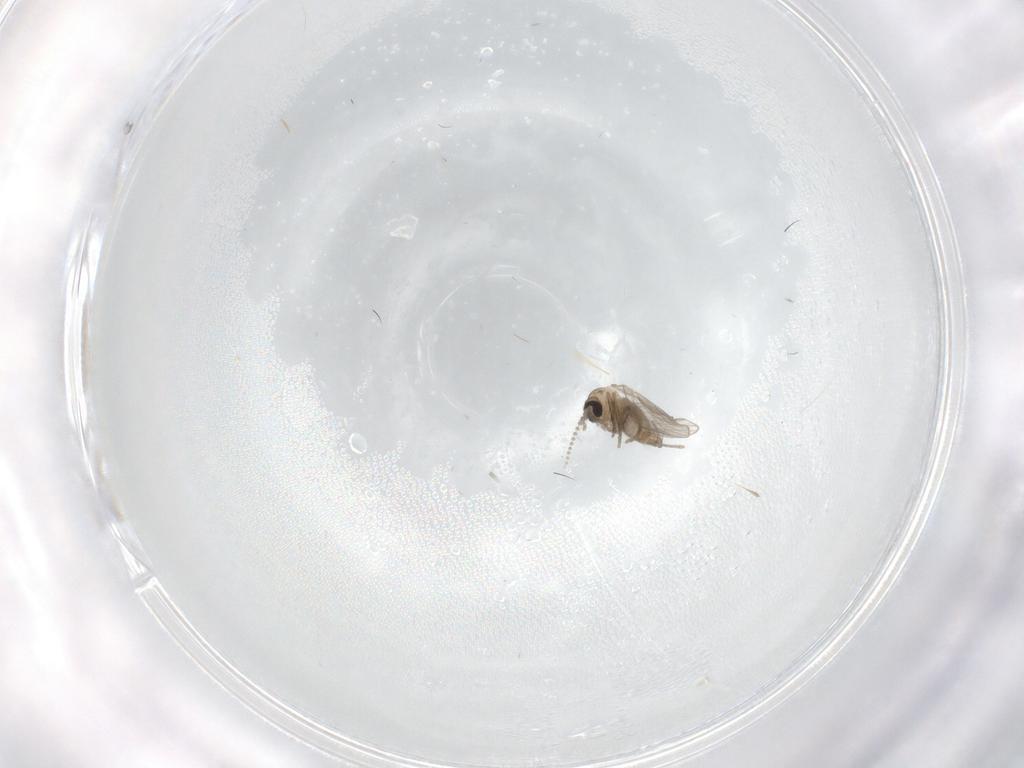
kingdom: Animalia
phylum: Arthropoda
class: Insecta
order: Diptera
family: Psychodidae
